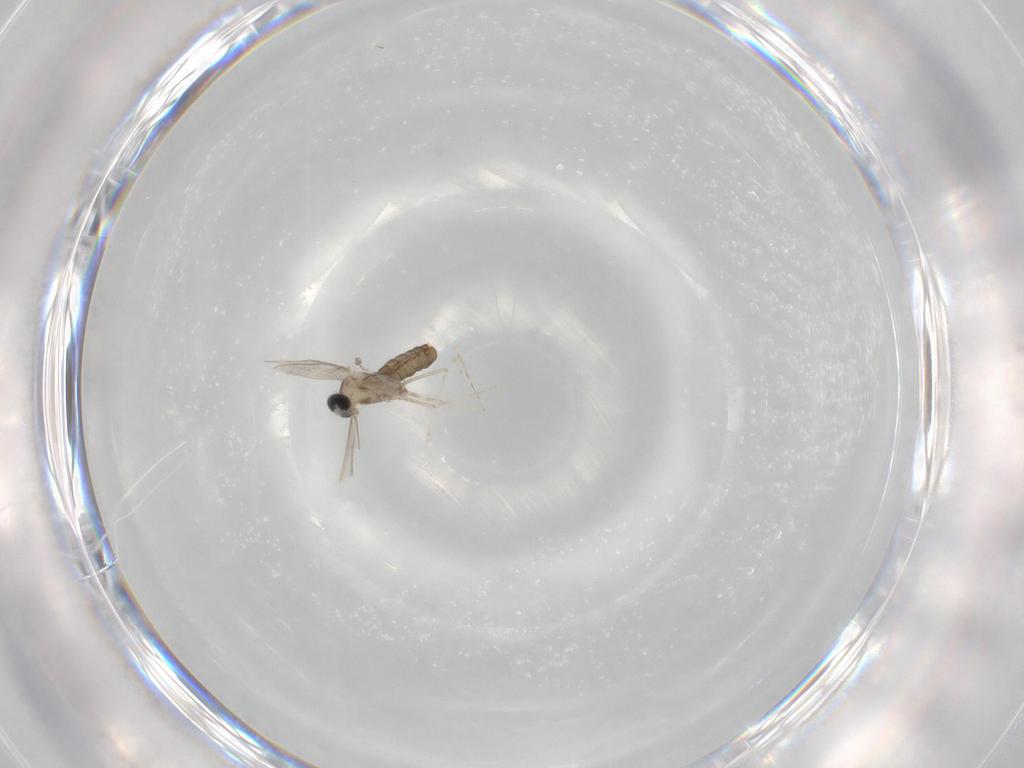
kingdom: Animalia
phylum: Arthropoda
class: Insecta
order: Diptera
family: Cecidomyiidae
